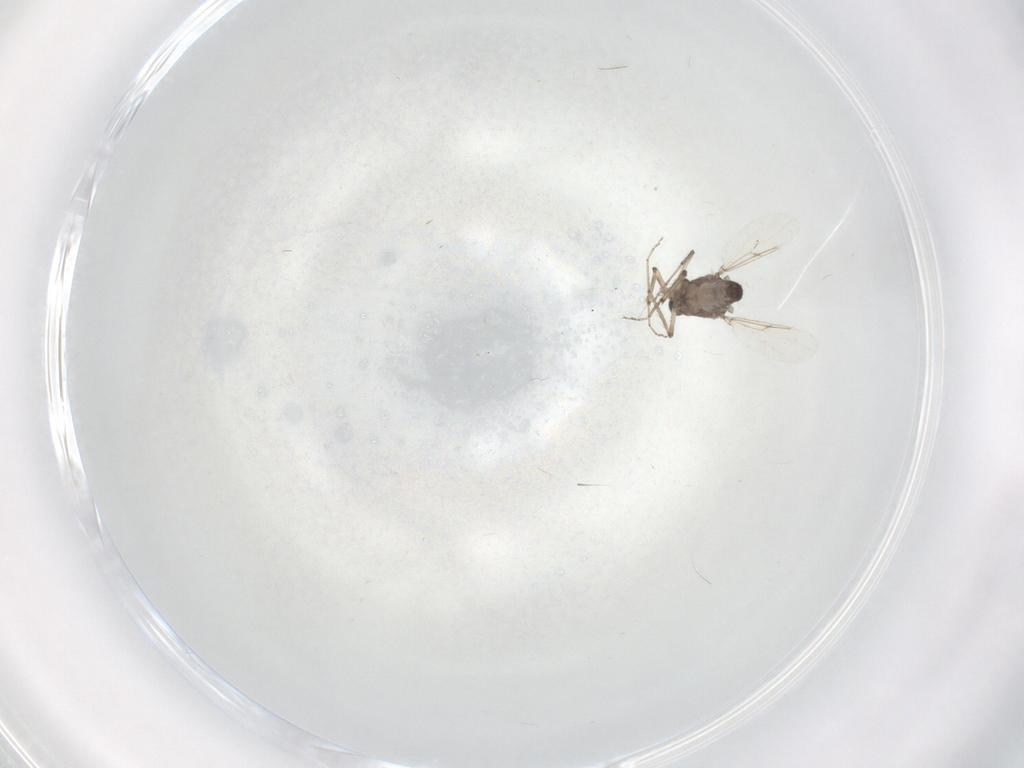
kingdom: Animalia
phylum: Arthropoda
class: Insecta
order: Diptera
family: Ceratopogonidae
